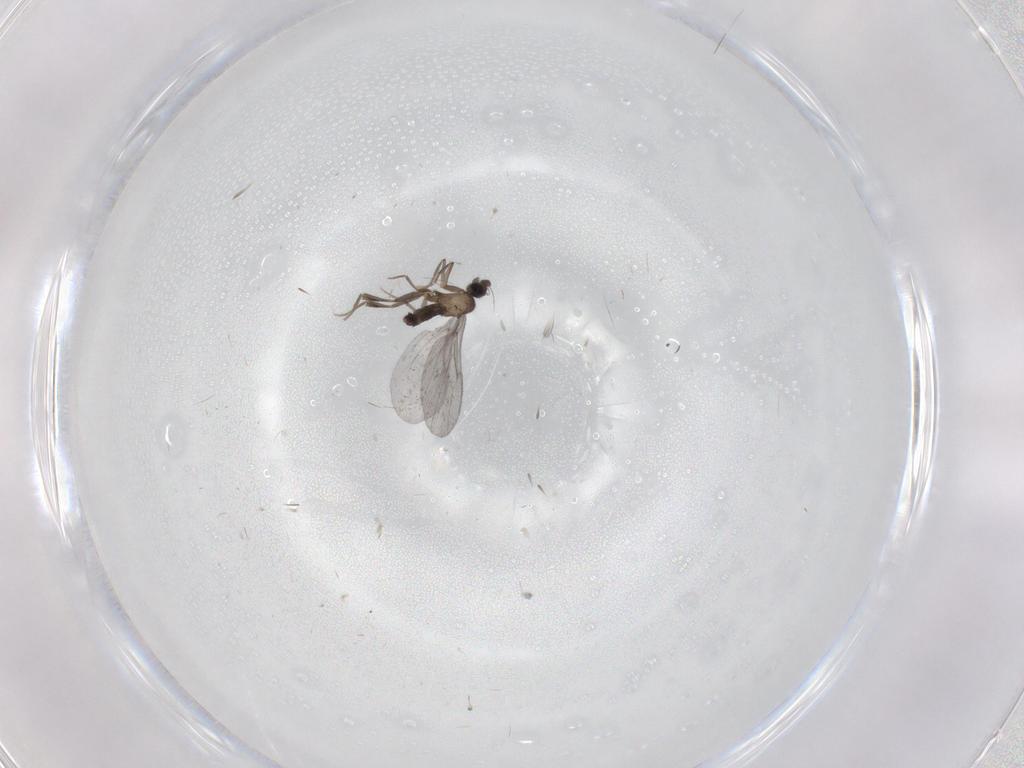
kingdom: Animalia
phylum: Arthropoda
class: Insecta
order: Diptera
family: Phoridae
